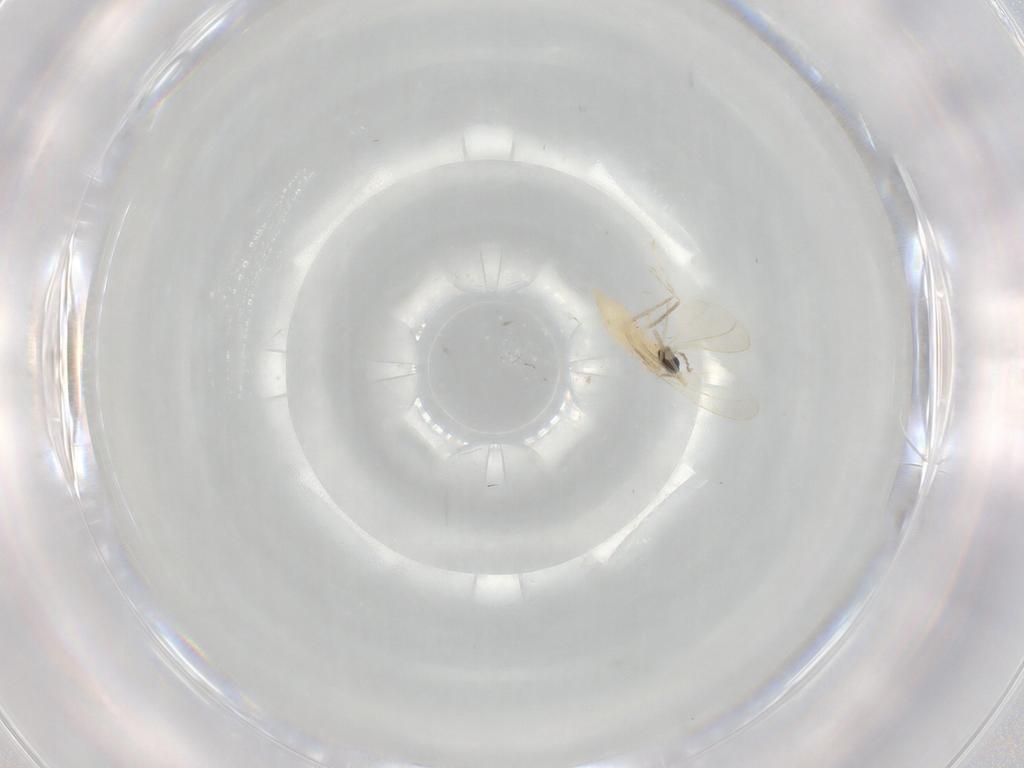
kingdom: Animalia
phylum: Arthropoda
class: Insecta
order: Diptera
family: Cecidomyiidae
